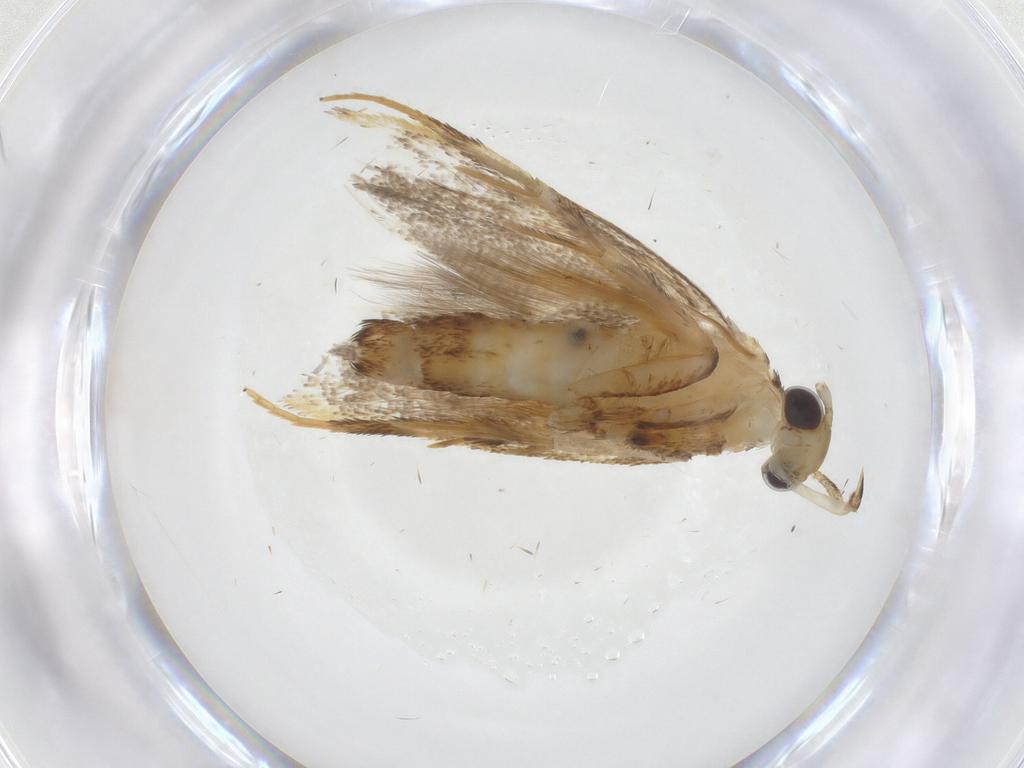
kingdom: Animalia
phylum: Arthropoda
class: Insecta
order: Lepidoptera
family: Lecithoceridae
